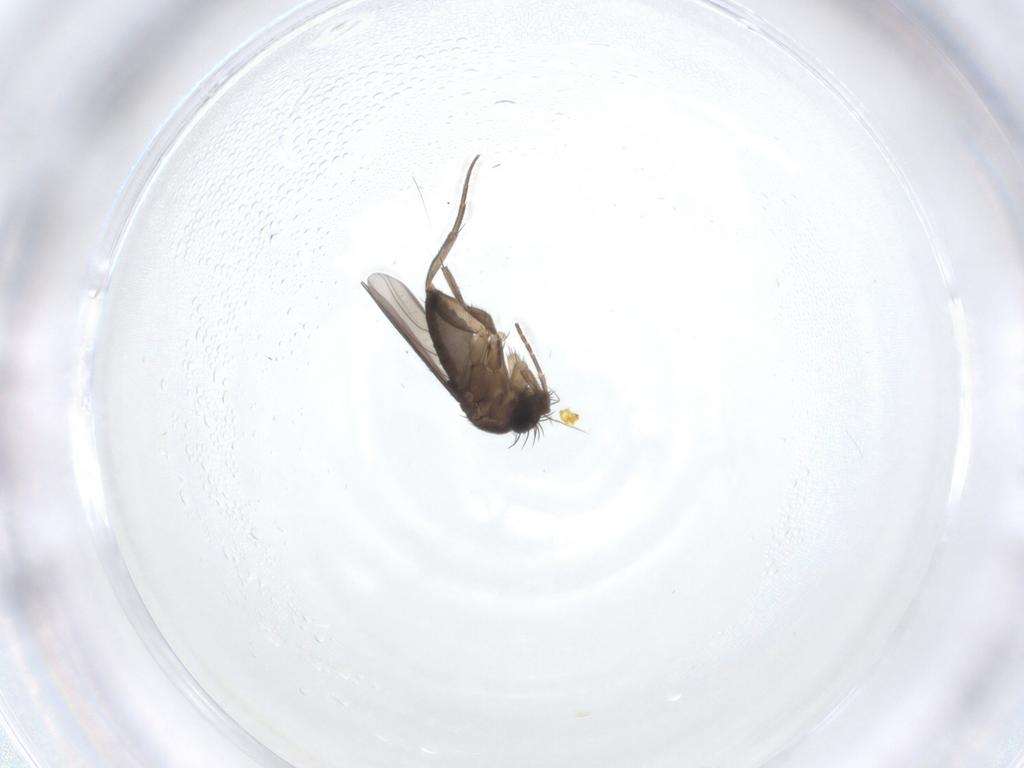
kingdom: Animalia
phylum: Arthropoda
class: Insecta
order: Diptera
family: Phoridae
